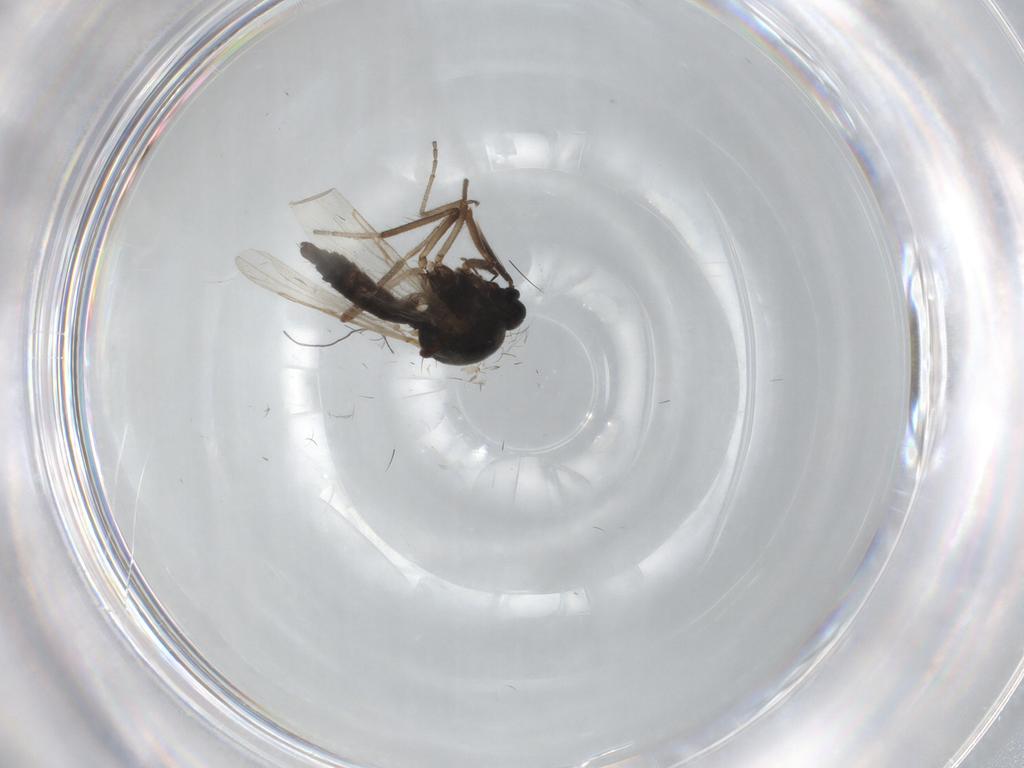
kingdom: Animalia
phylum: Arthropoda
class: Insecta
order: Diptera
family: Ceratopogonidae
